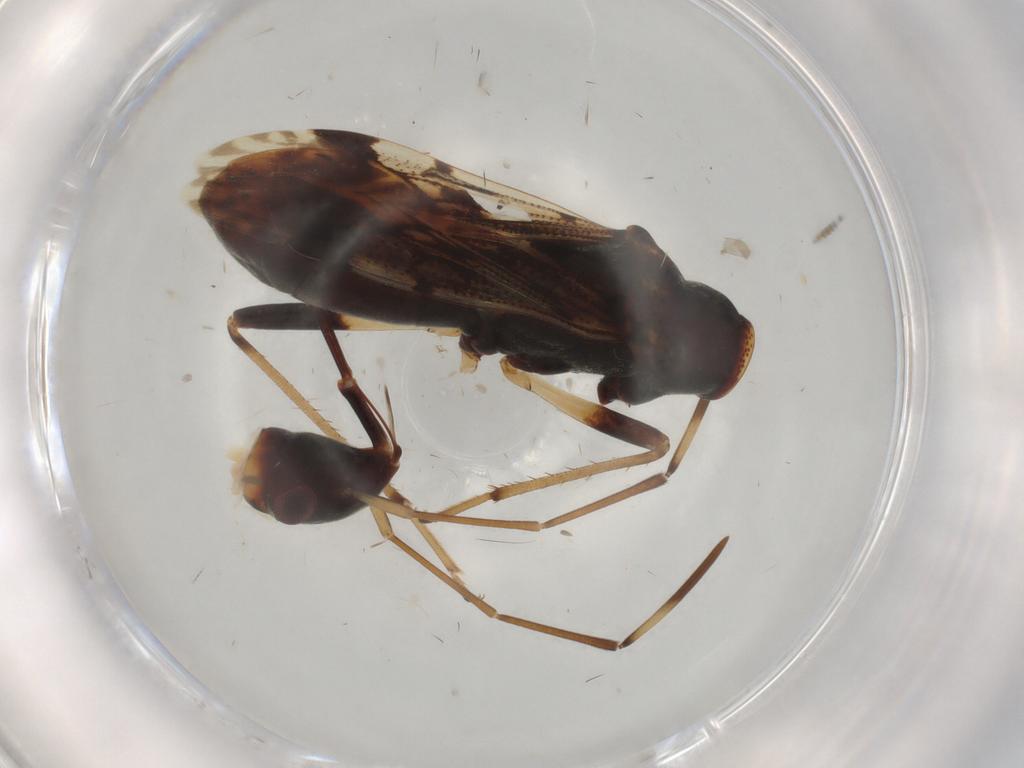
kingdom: Animalia
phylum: Arthropoda
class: Insecta
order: Hemiptera
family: Rhyparochromidae
